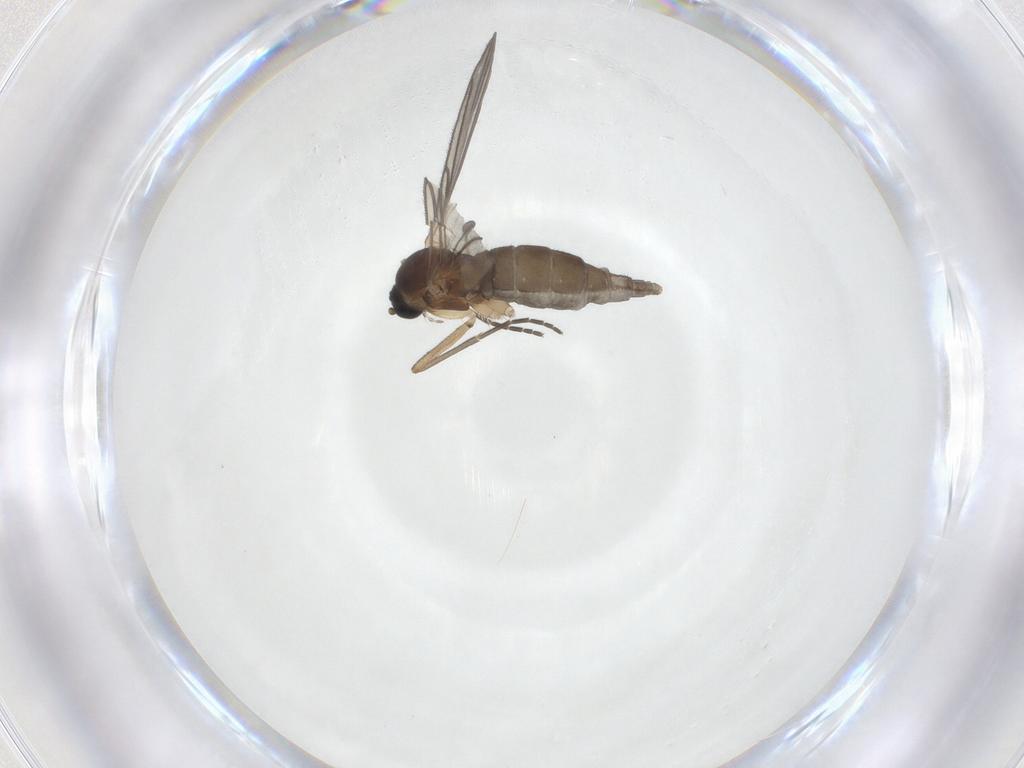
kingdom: Animalia
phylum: Arthropoda
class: Insecta
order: Diptera
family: Sciaridae
